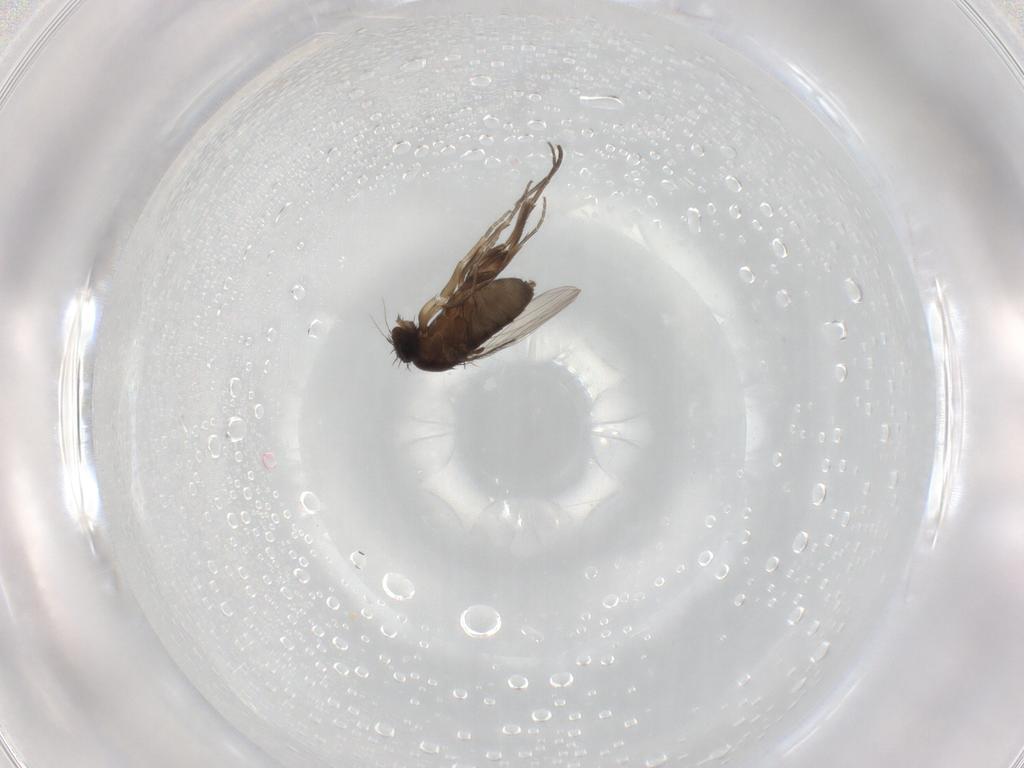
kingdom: Animalia
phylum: Arthropoda
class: Insecta
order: Diptera
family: Phoridae
